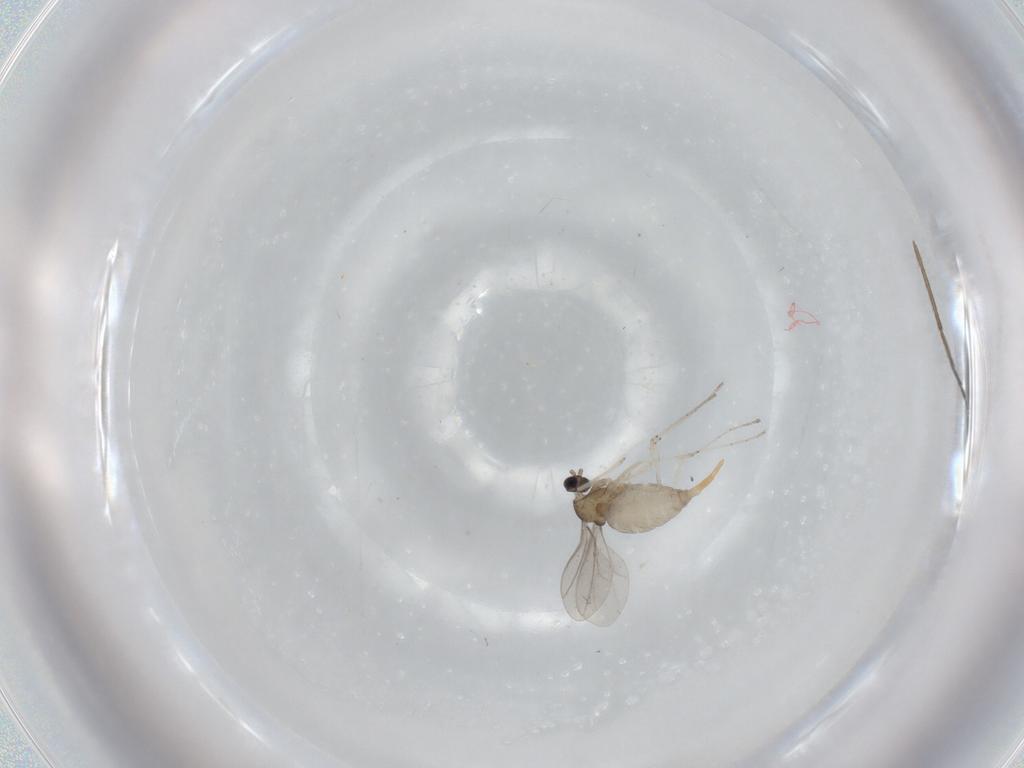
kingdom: Animalia
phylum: Arthropoda
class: Insecta
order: Diptera
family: Cecidomyiidae
